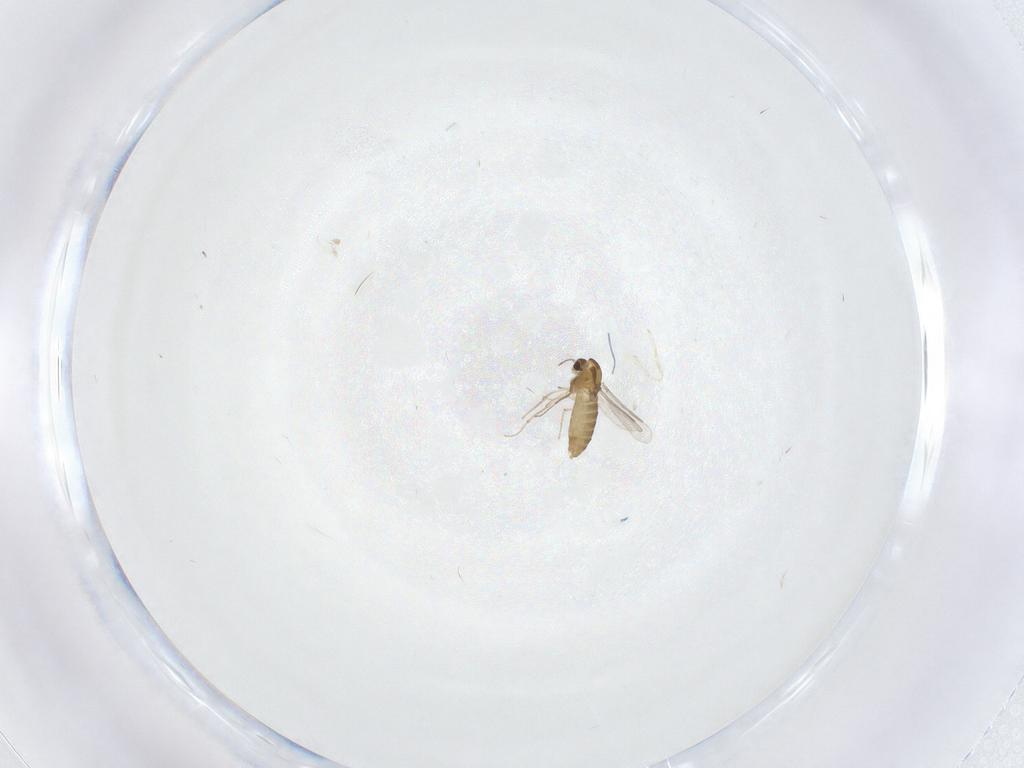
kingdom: Animalia
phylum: Arthropoda
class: Insecta
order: Diptera
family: Chironomidae
